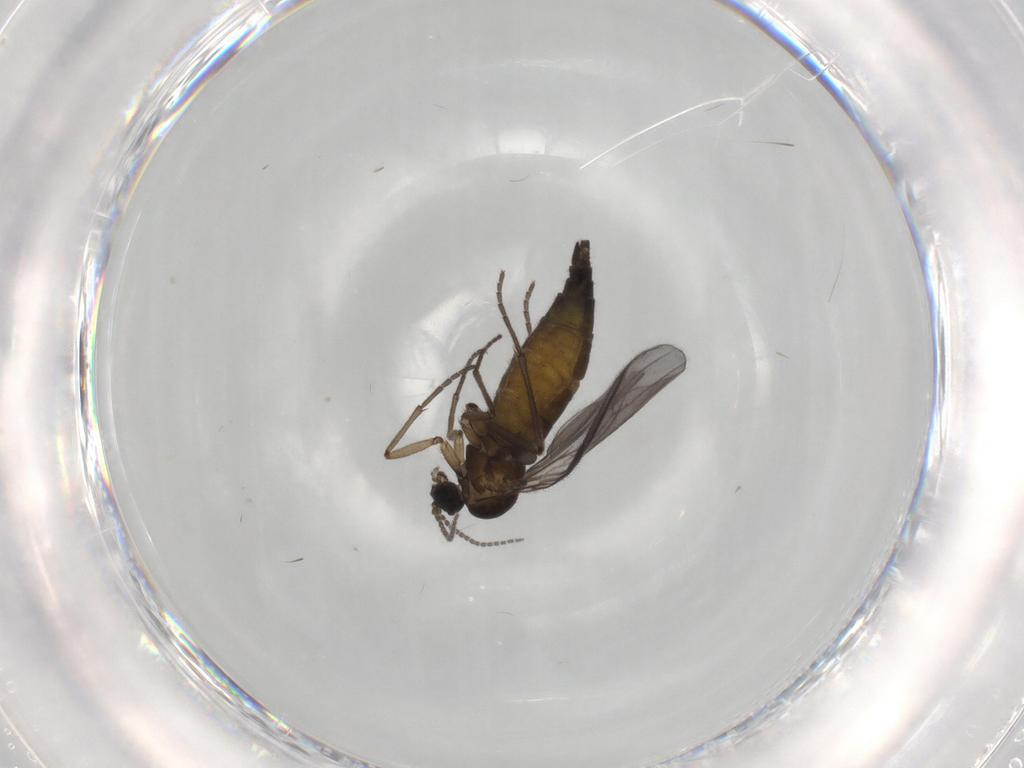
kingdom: Animalia
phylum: Arthropoda
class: Insecta
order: Diptera
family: Sciaridae
